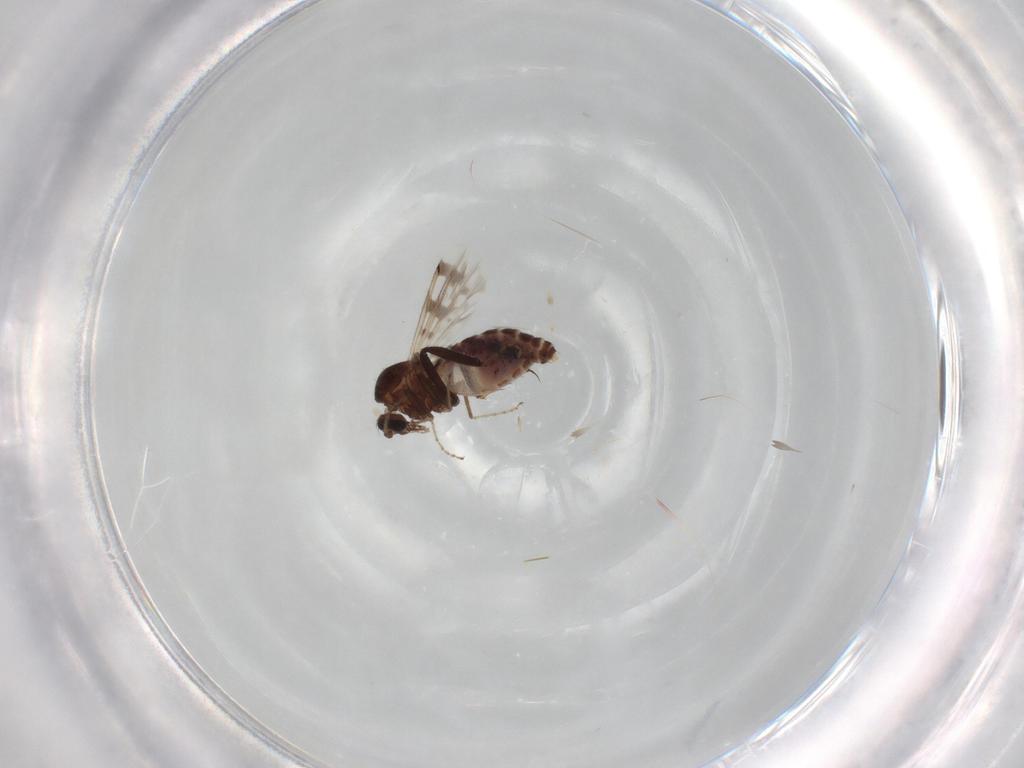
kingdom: Animalia
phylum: Arthropoda
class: Insecta
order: Diptera
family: Ceratopogonidae
